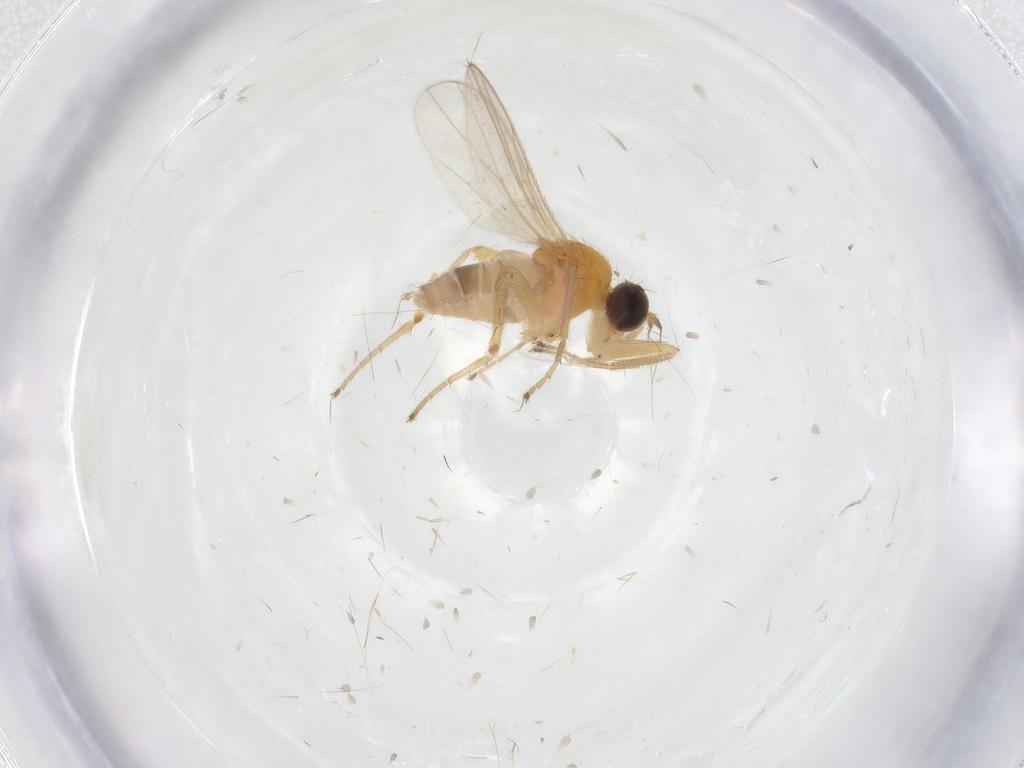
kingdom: Animalia
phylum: Arthropoda
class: Insecta
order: Diptera
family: Hybotidae
